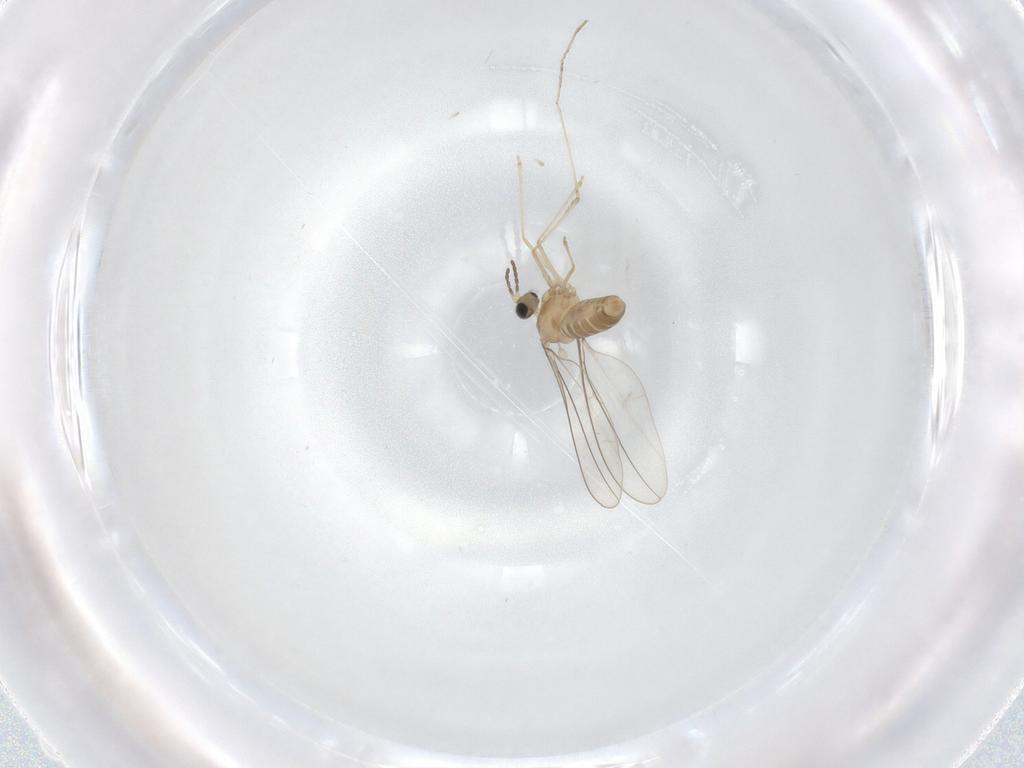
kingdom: Animalia
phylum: Arthropoda
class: Insecta
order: Diptera
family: Cecidomyiidae
